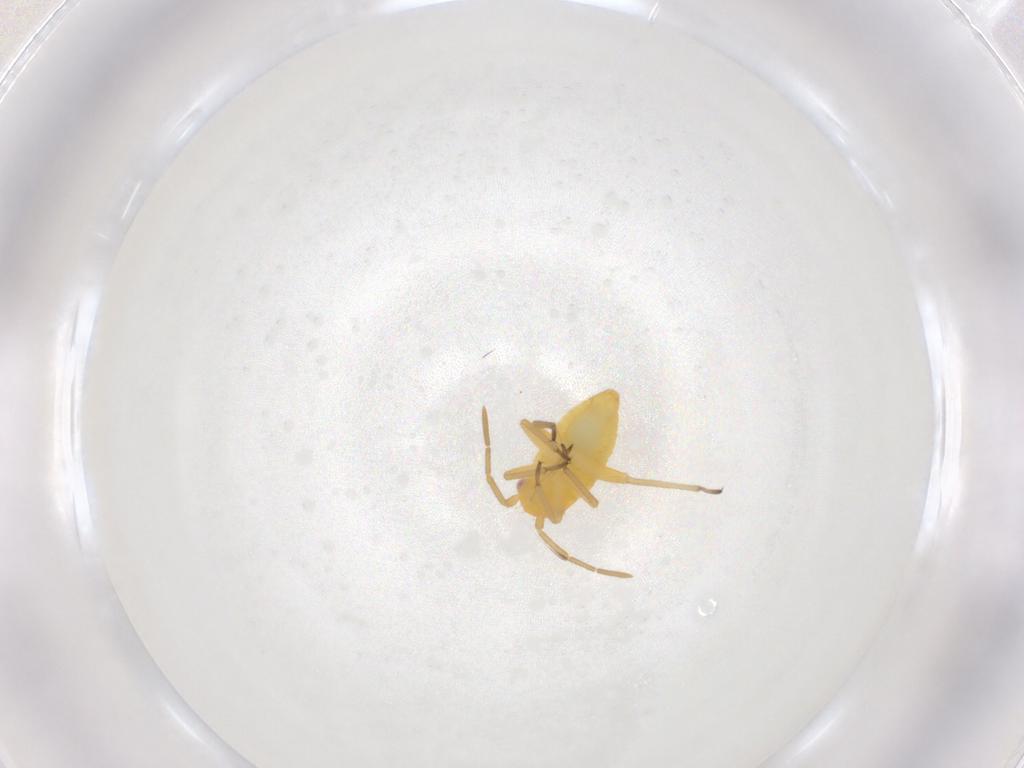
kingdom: Animalia
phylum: Arthropoda
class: Insecta
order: Hemiptera
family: Miridae
